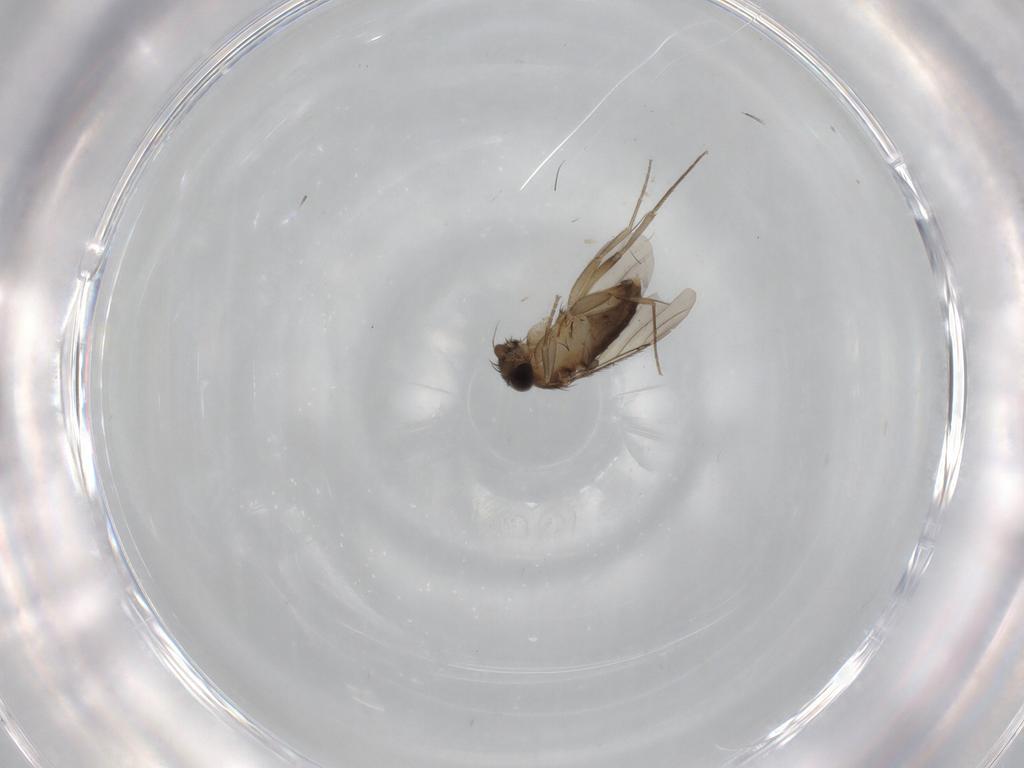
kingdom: Animalia
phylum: Arthropoda
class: Insecta
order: Diptera
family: Phoridae
